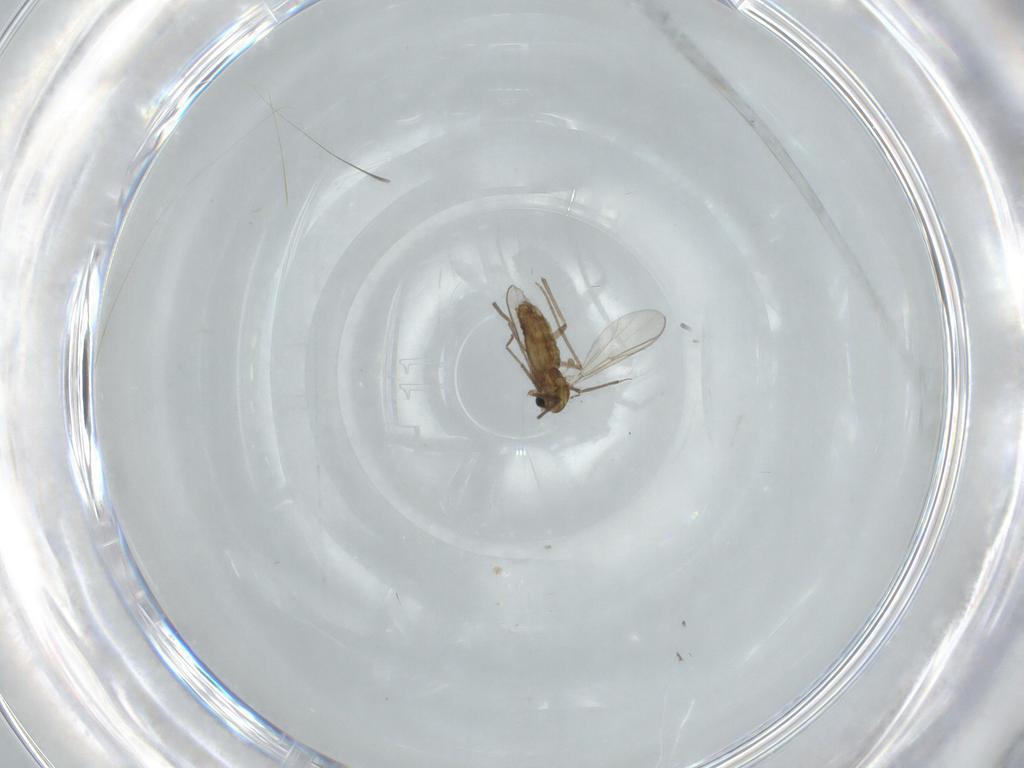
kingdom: Animalia
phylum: Arthropoda
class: Insecta
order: Diptera
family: Chironomidae
